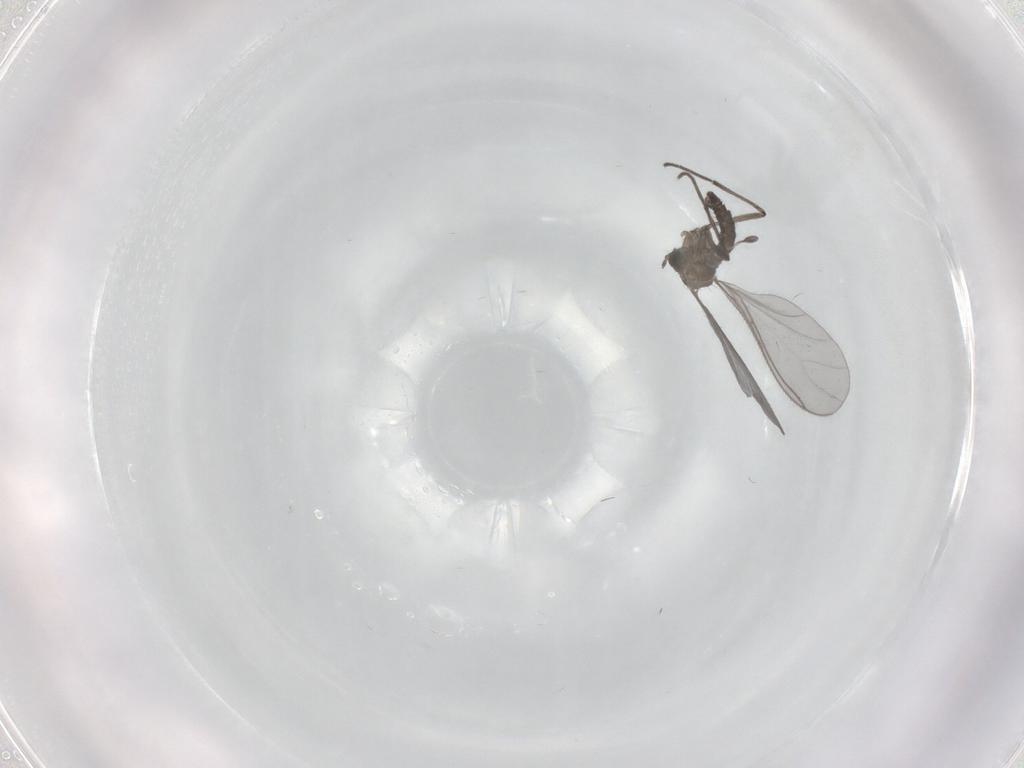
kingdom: Animalia
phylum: Arthropoda
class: Insecta
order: Diptera
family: Sciaridae
